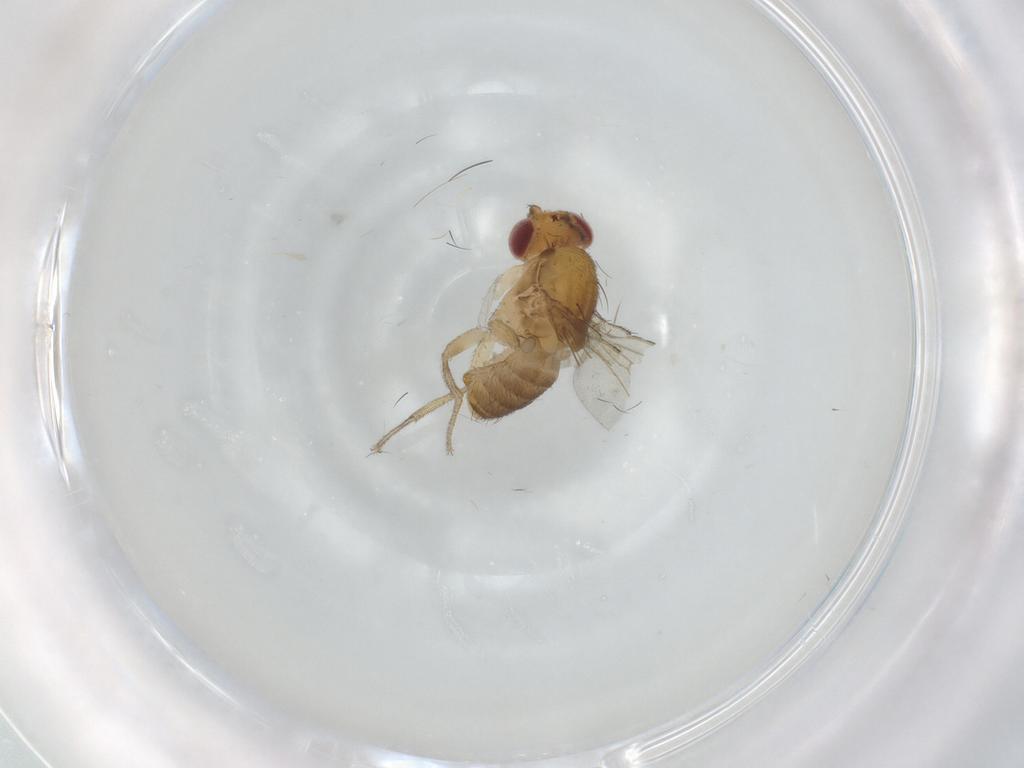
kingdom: Animalia
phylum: Arthropoda
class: Insecta
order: Diptera
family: Drosophilidae
